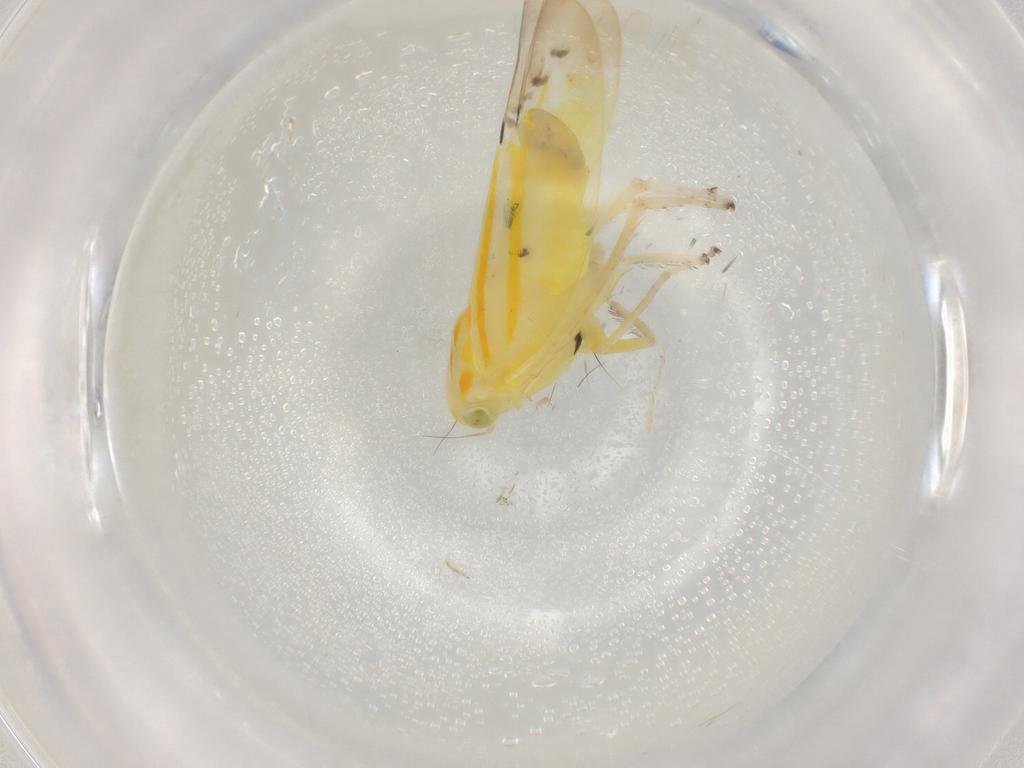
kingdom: Animalia
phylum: Arthropoda
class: Insecta
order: Hemiptera
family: Cicadellidae
